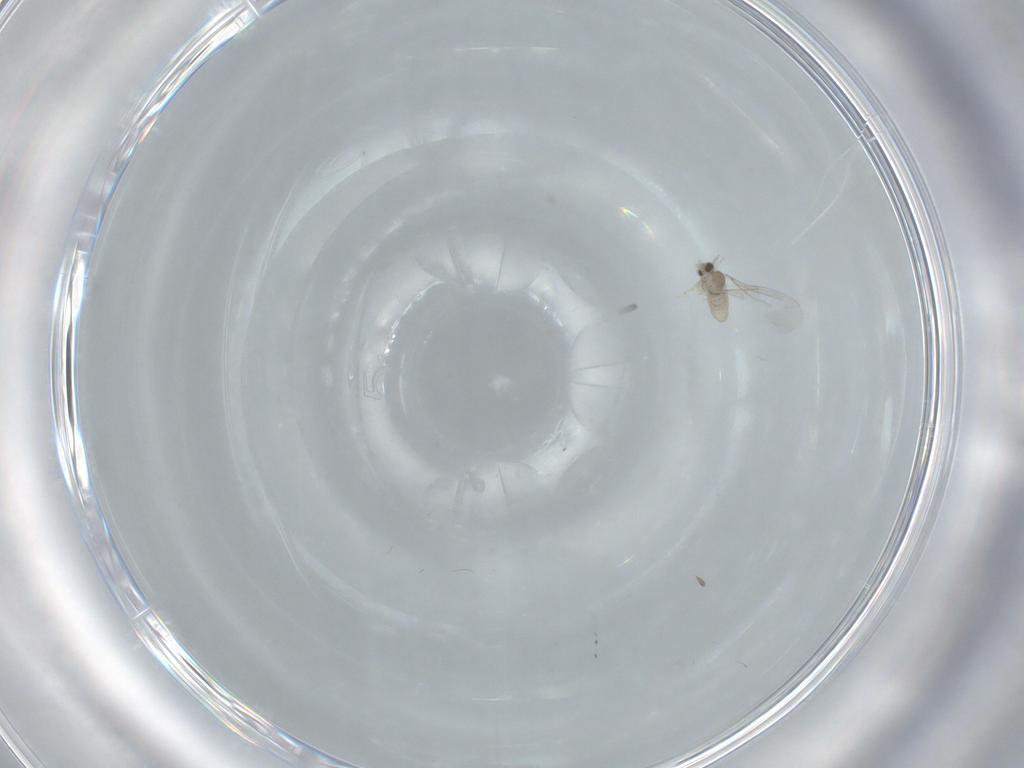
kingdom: Animalia
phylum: Arthropoda
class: Insecta
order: Diptera
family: Cecidomyiidae
